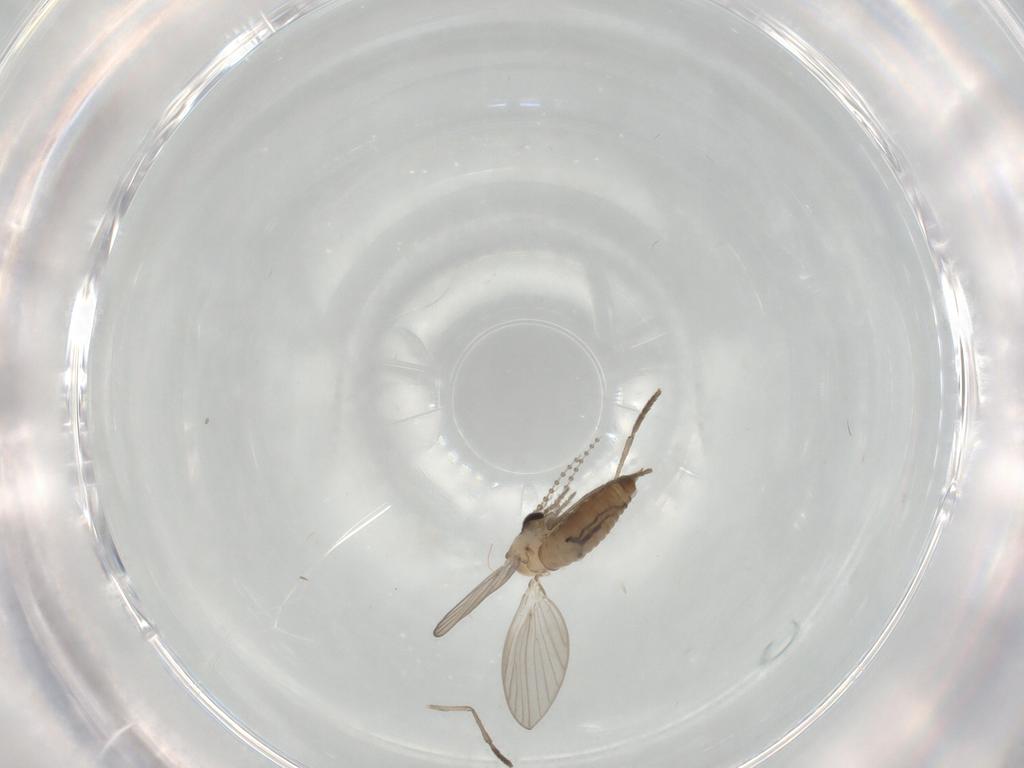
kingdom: Animalia
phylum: Arthropoda
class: Insecta
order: Diptera
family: Psychodidae
